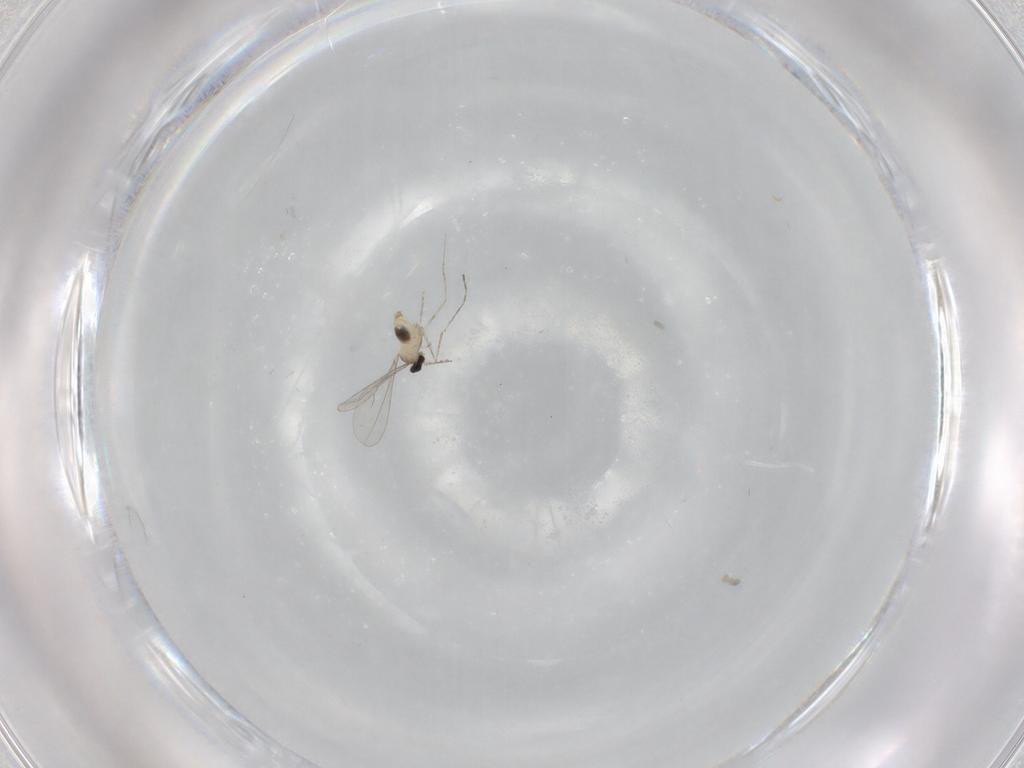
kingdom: Animalia
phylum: Arthropoda
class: Insecta
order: Diptera
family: Cecidomyiidae
